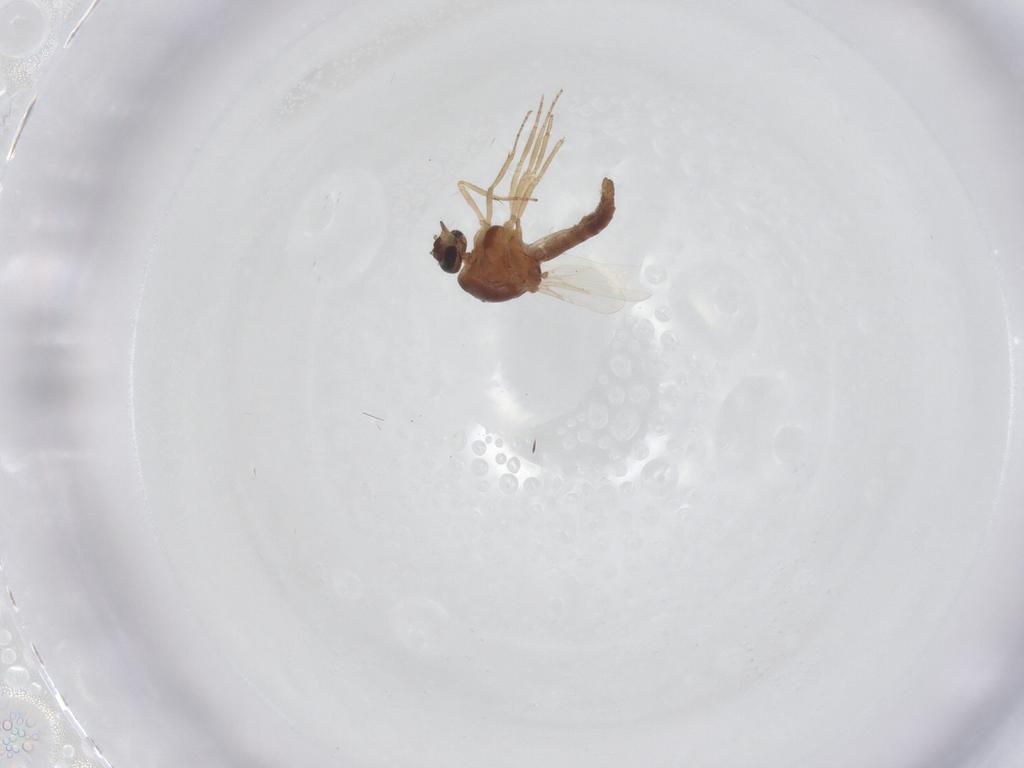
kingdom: Animalia
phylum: Arthropoda
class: Insecta
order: Diptera
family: Ceratopogonidae
